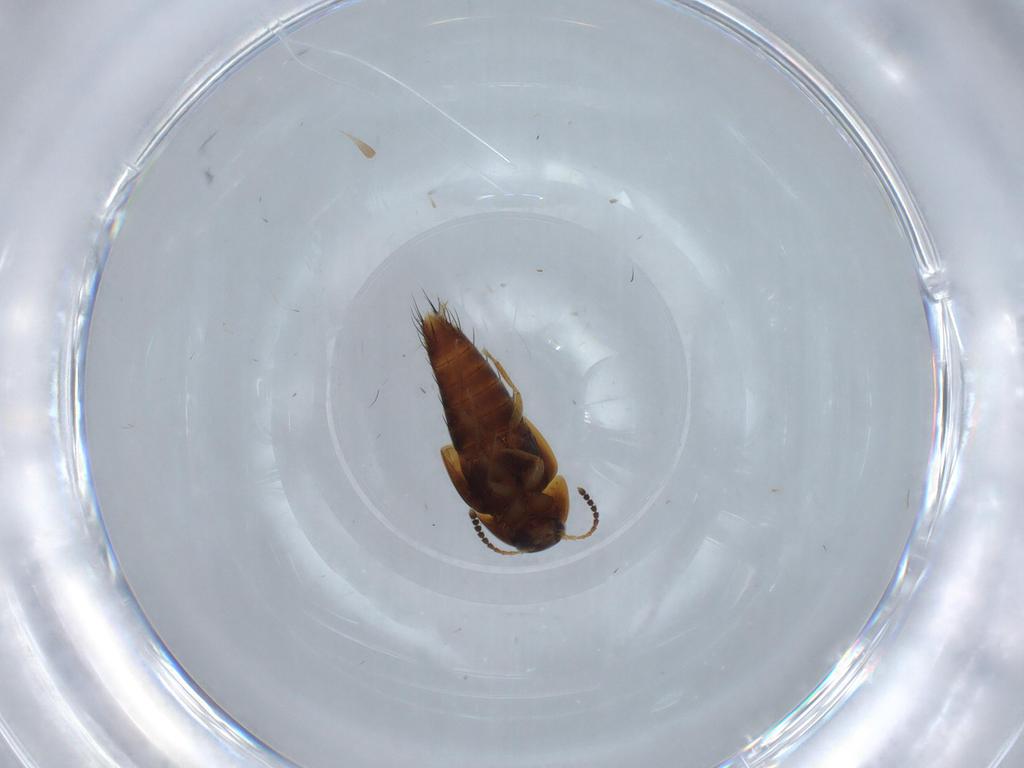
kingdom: Animalia
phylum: Arthropoda
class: Insecta
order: Coleoptera
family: Staphylinidae
